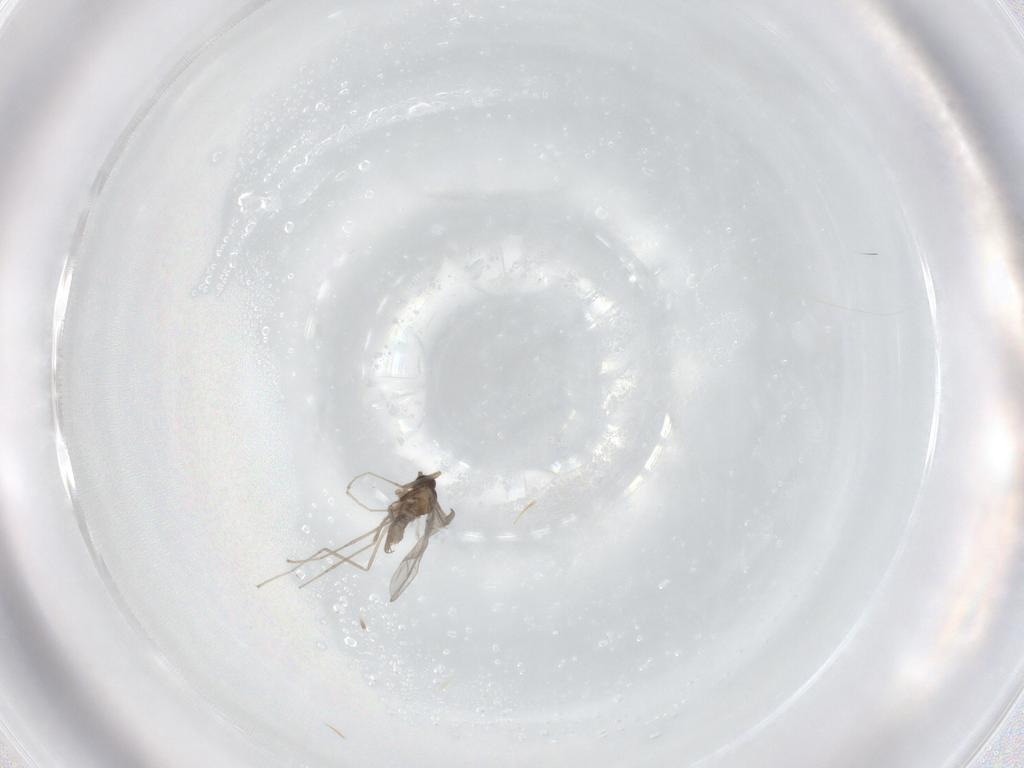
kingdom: Animalia
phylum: Arthropoda
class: Insecta
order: Diptera
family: Cecidomyiidae
